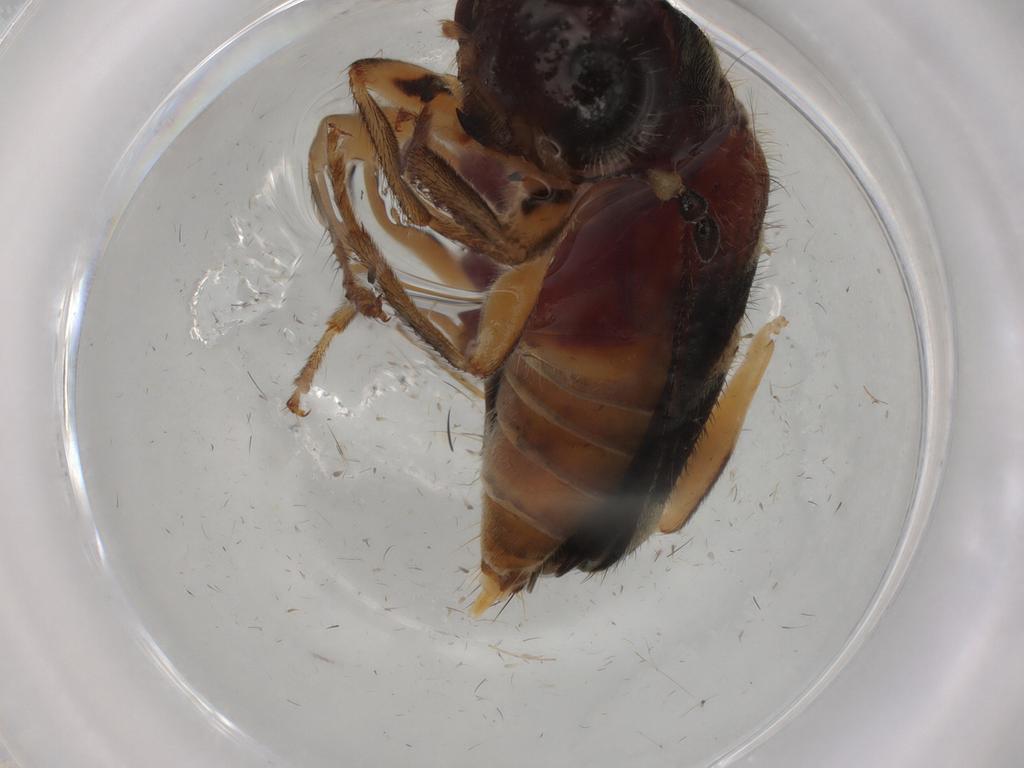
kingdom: Animalia
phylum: Arthropoda
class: Insecta
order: Coleoptera
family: Cleridae
